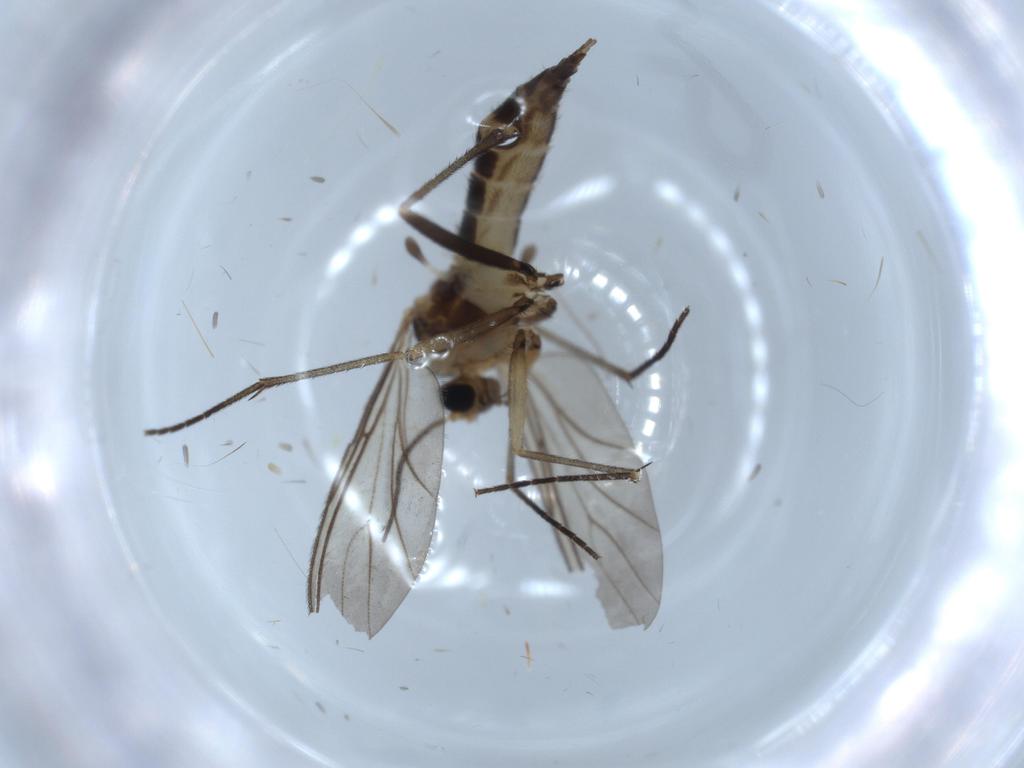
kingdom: Animalia
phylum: Arthropoda
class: Insecta
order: Diptera
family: Sciaridae
